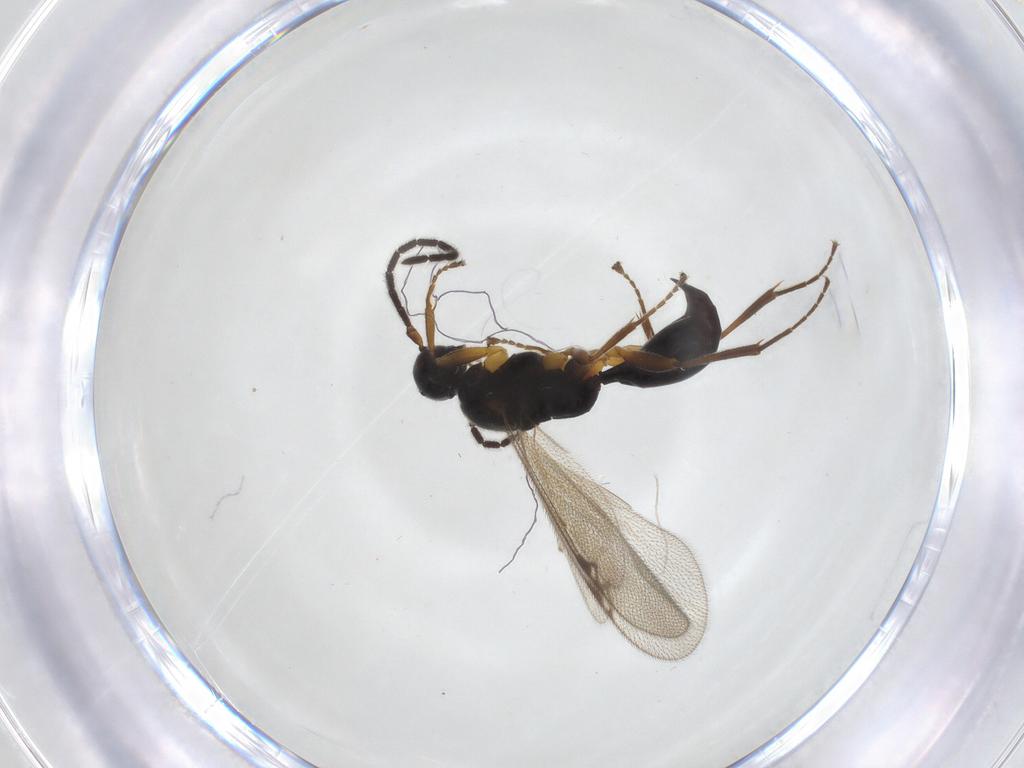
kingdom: Animalia
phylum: Arthropoda
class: Insecta
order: Hymenoptera
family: Proctotrupidae
